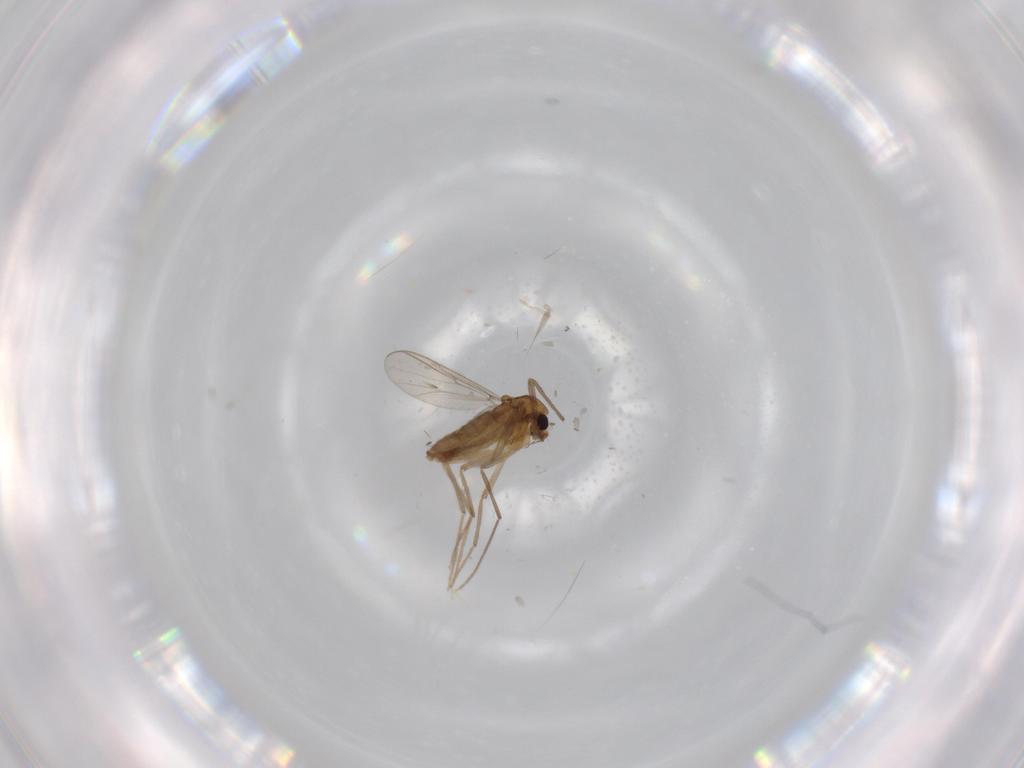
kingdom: Animalia
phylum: Arthropoda
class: Insecta
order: Diptera
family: Chironomidae
